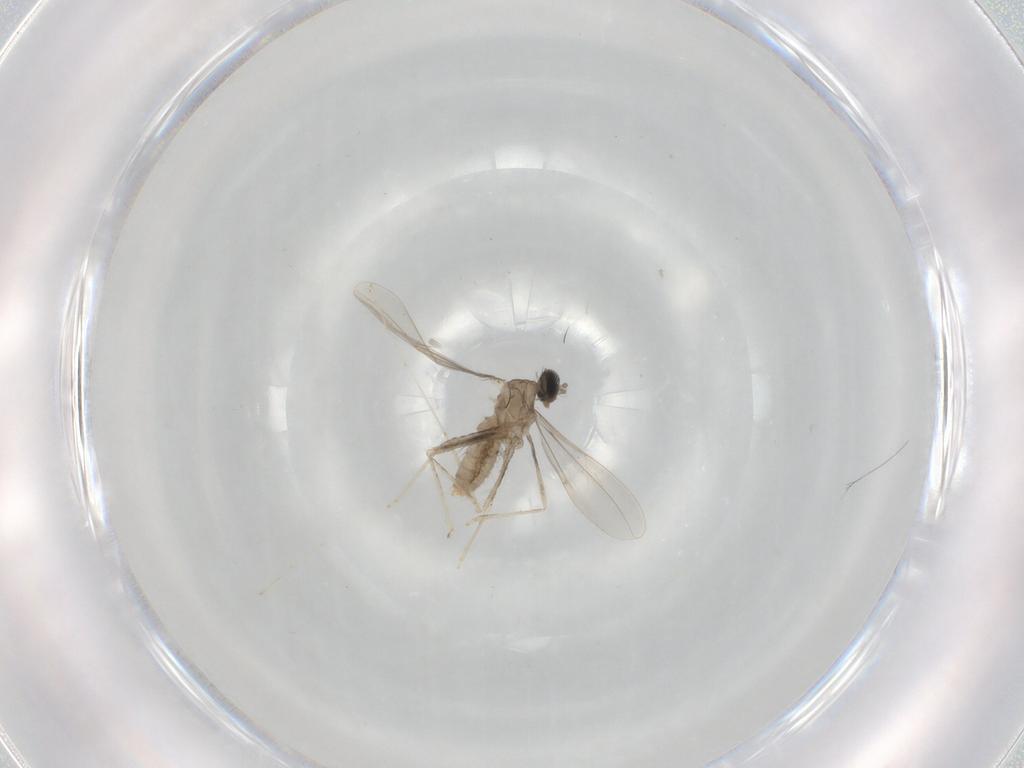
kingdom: Animalia
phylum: Arthropoda
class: Insecta
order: Diptera
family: Cecidomyiidae
